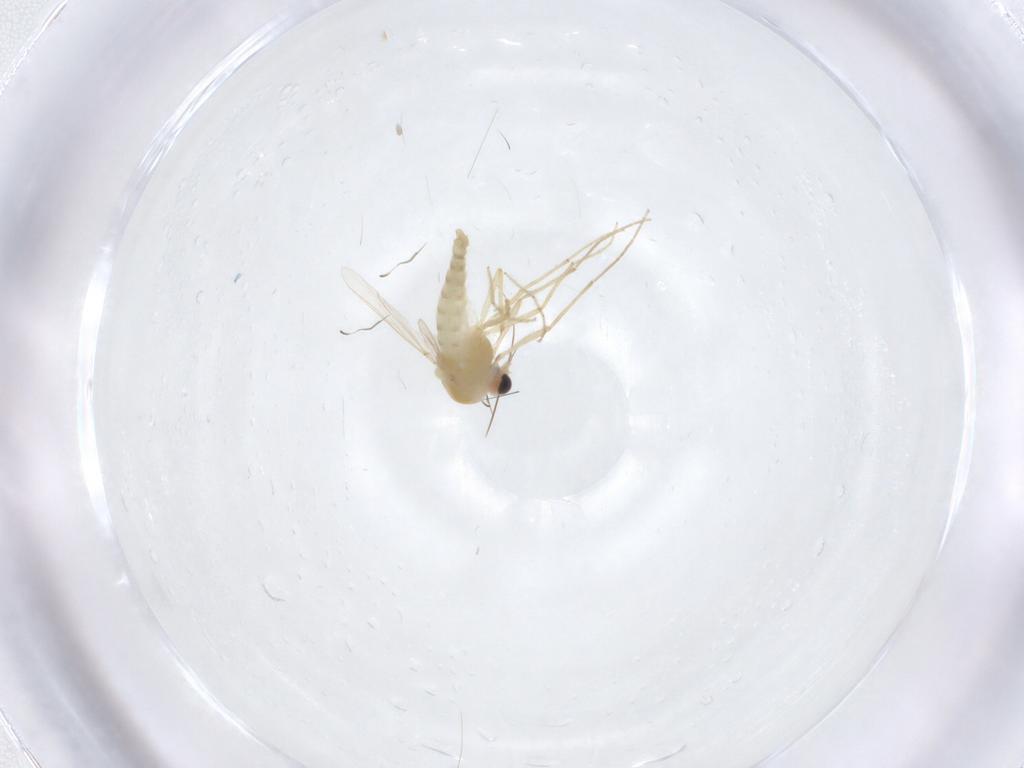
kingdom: Animalia
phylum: Arthropoda
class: Insecta
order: Diptera
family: Chironomidae
